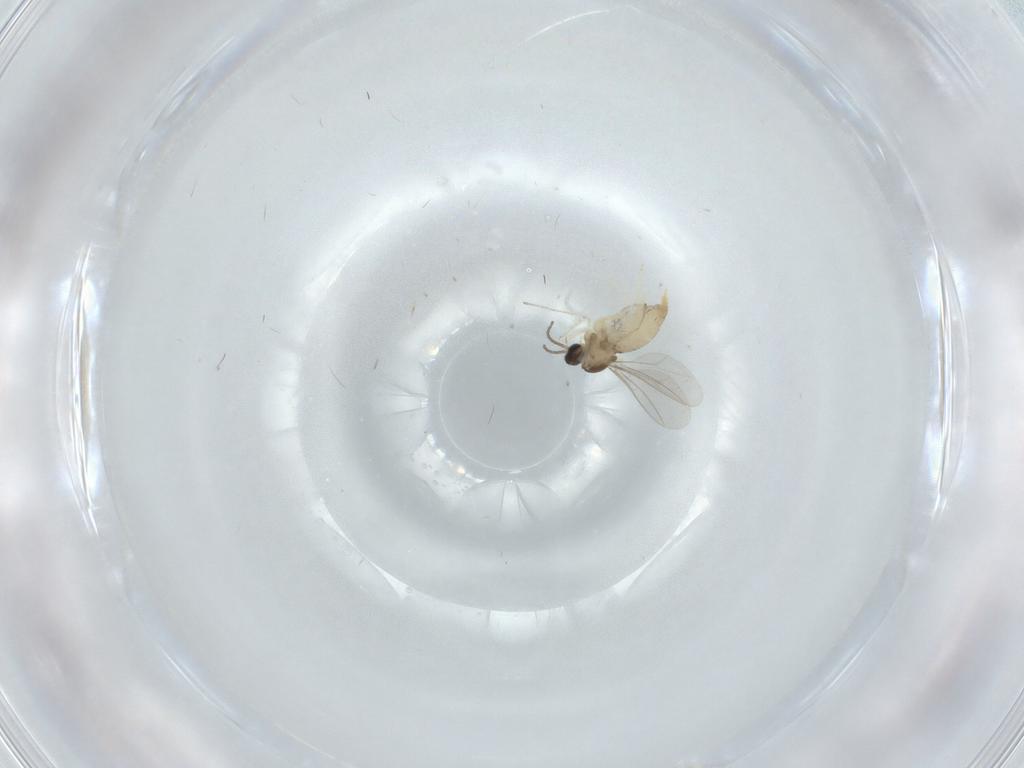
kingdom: Animalia
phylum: Arthropoda
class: Insecta
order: Diptera
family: Cecidomyiidae
